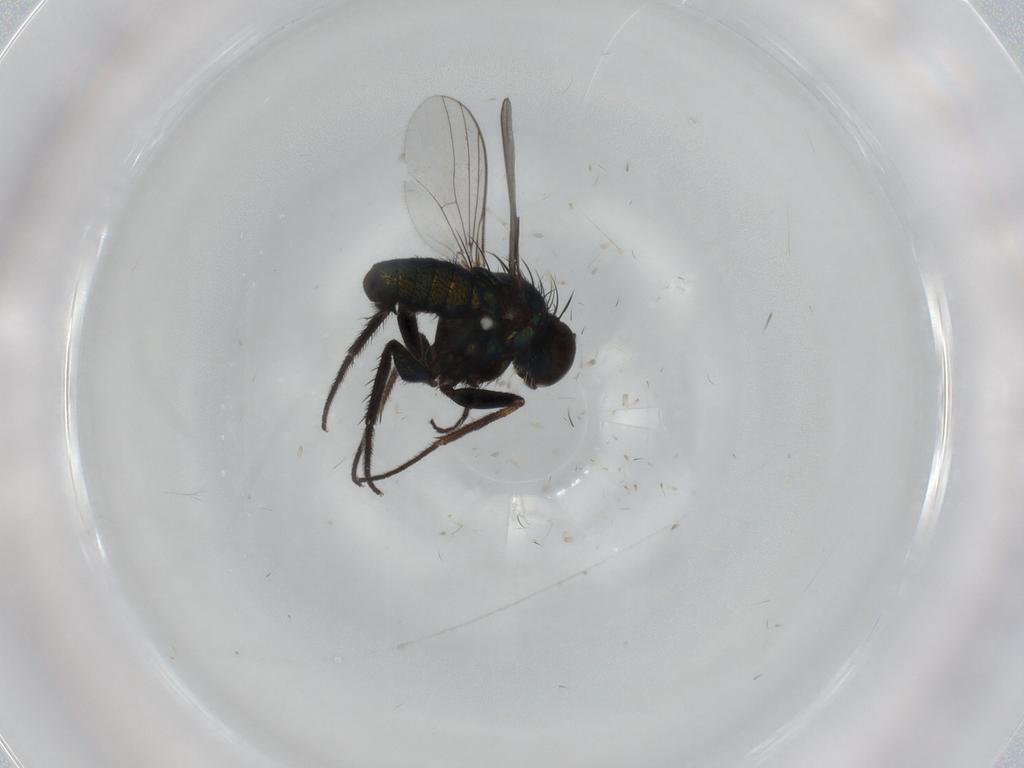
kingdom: Animalia
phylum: Arthropoda
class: Insecta
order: Diptera
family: Dolichopodidae
